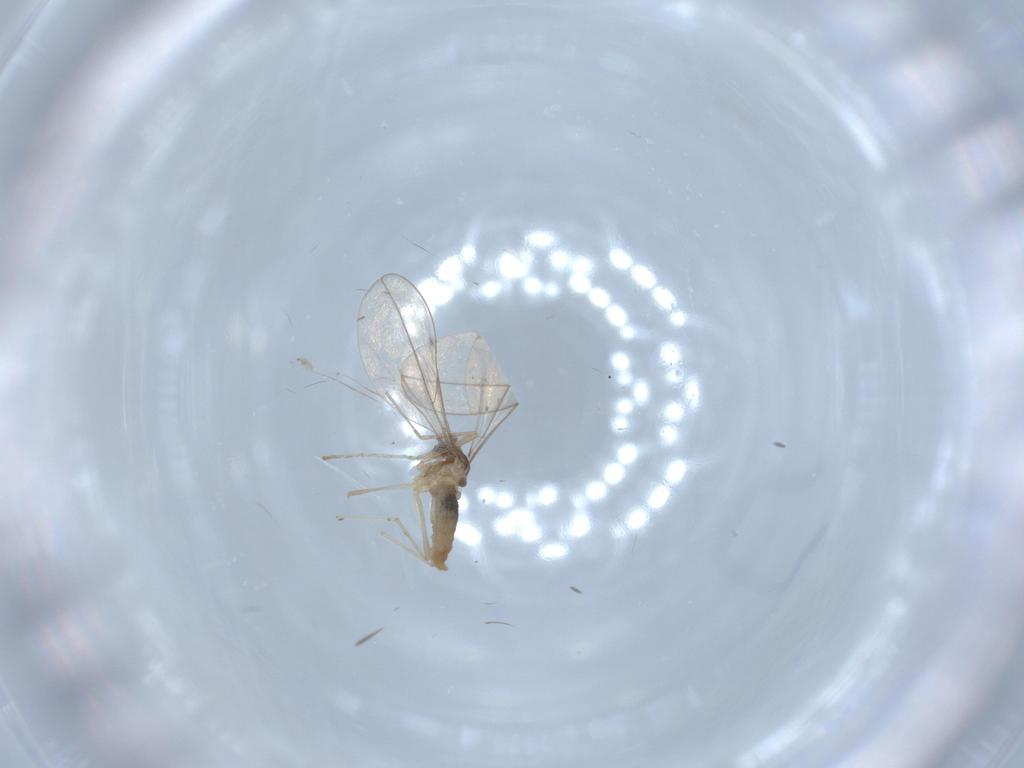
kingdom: Animalia
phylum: Arthropoda
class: Insecta
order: Diptera
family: Cecidomyiidae
